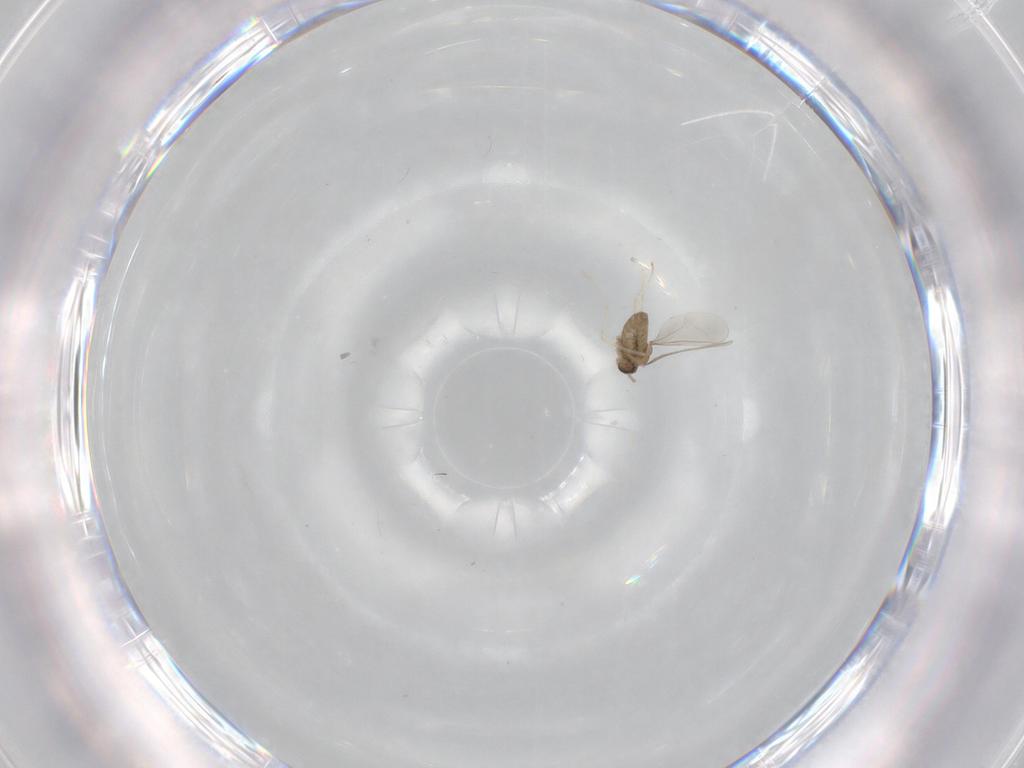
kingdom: Animalia
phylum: Arthropoda
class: Insecta
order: Diptera
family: Cecidomyiidae
